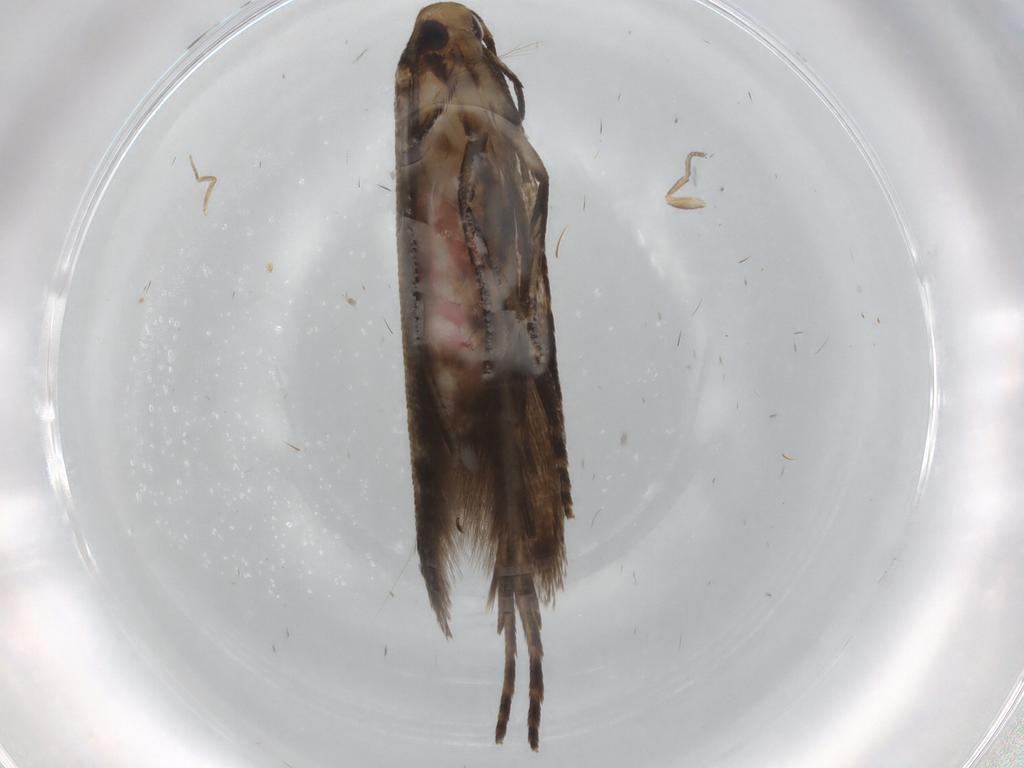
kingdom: Animalia
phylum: Arthropoda
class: Insecta
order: Lepidoptera
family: Cosmopterigidae
